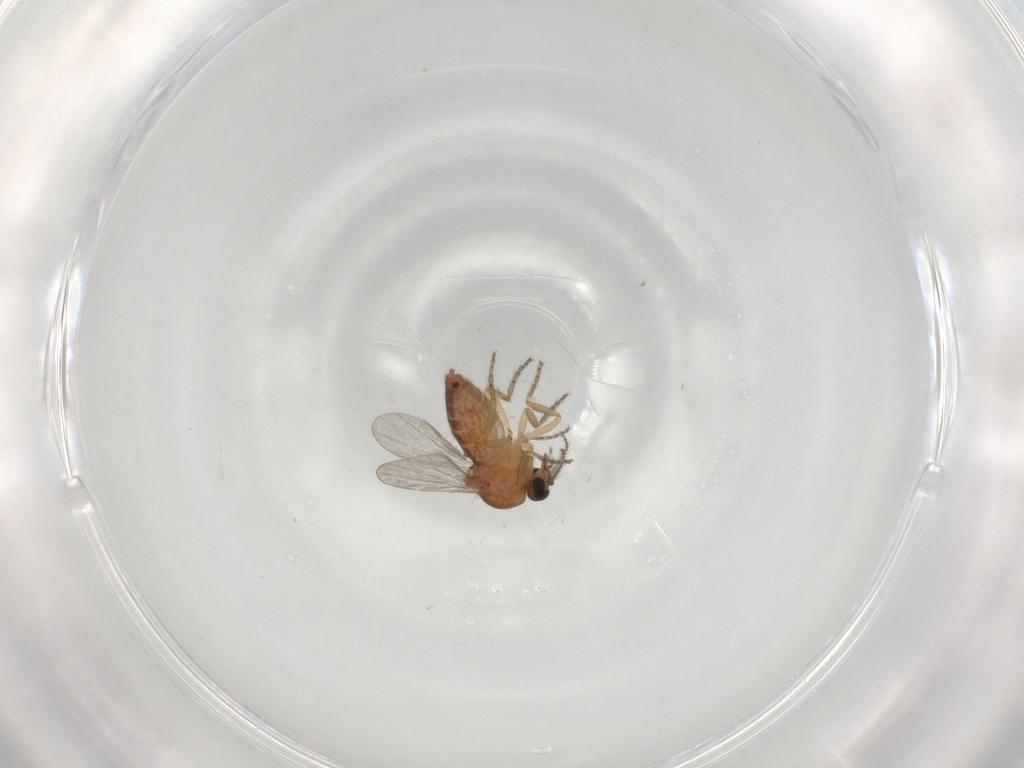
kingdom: Animalia
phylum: Arthropoda
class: Insecta
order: Diptera
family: Ceratopogonidae
